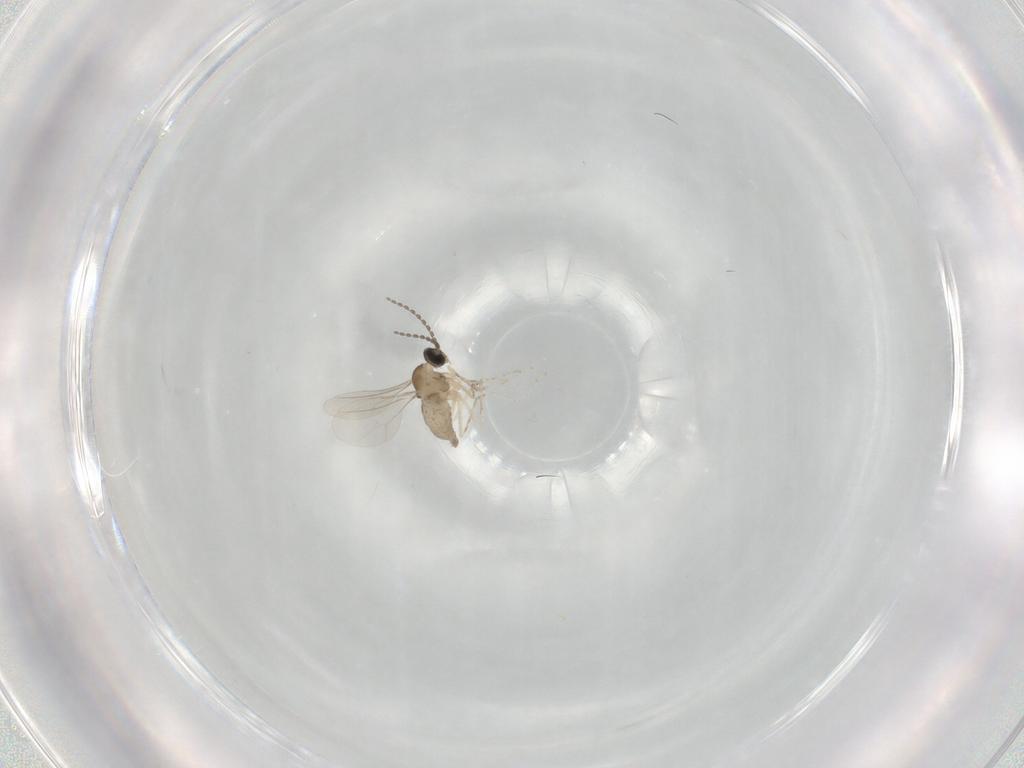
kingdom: Animalia
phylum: Arthropoda
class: Insecta
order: Diptera
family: Cecidomyiidae
